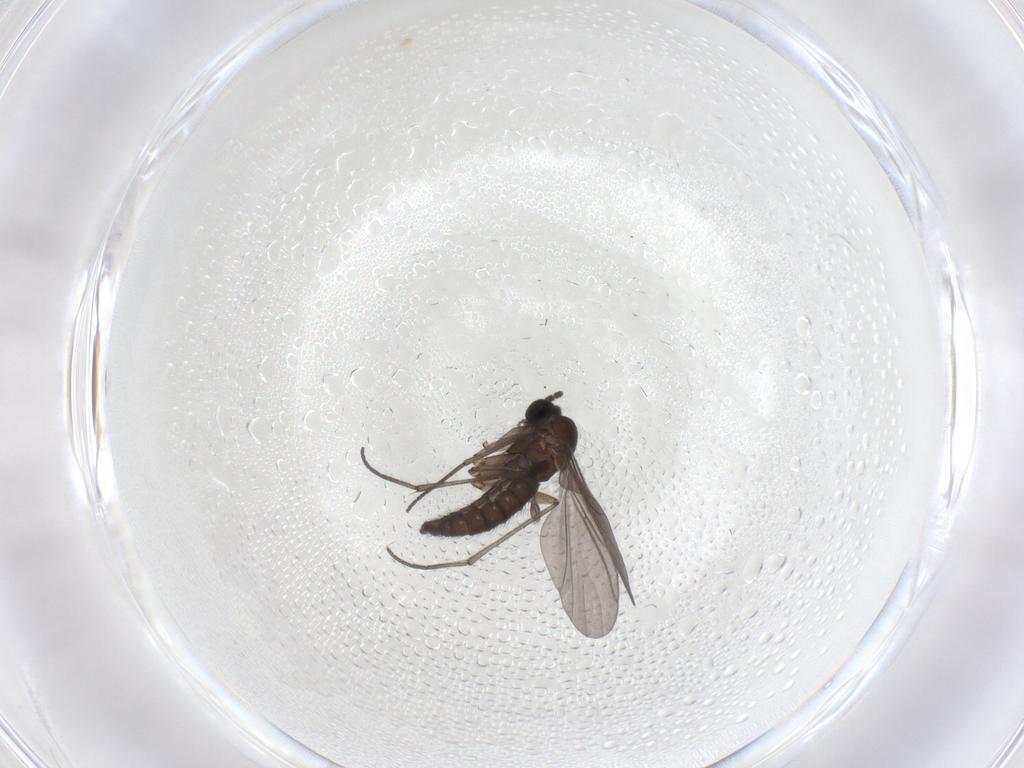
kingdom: Animalia
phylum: Arthropoda
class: Insecta
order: Diptera
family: Sciaridae
